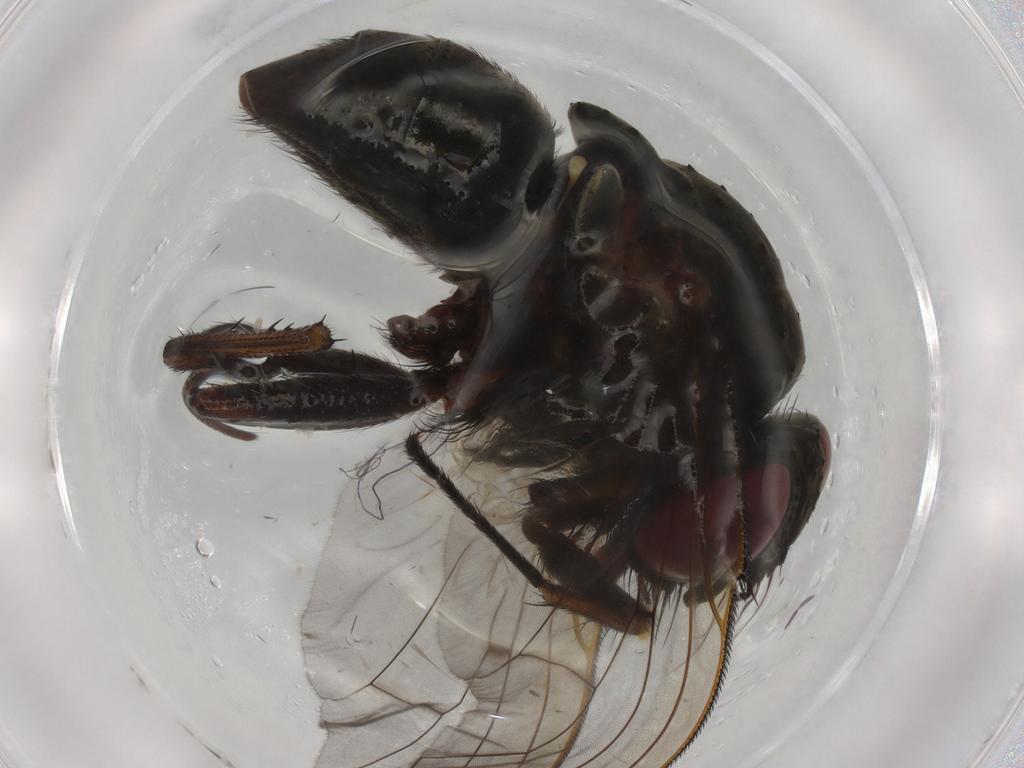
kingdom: Animalia
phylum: Arthropoda
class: Insecta
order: Diptera
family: Muscidae
